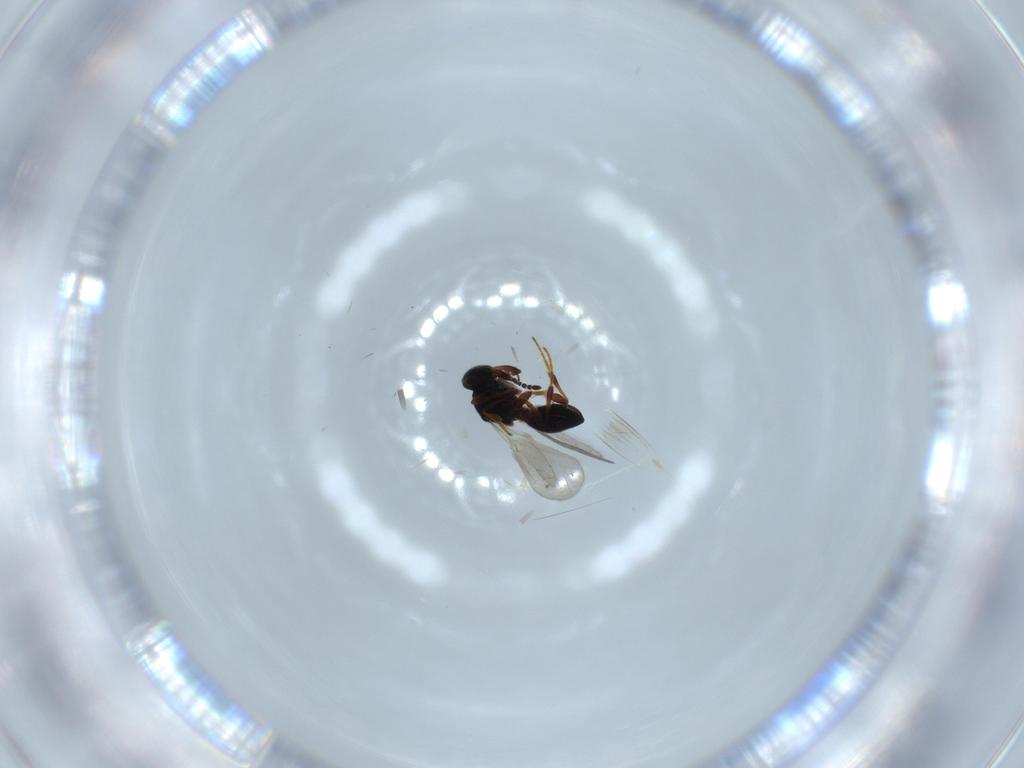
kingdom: Animalia
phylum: Arthropoda
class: Insecta
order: Hymenoptera
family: Platygastridae
